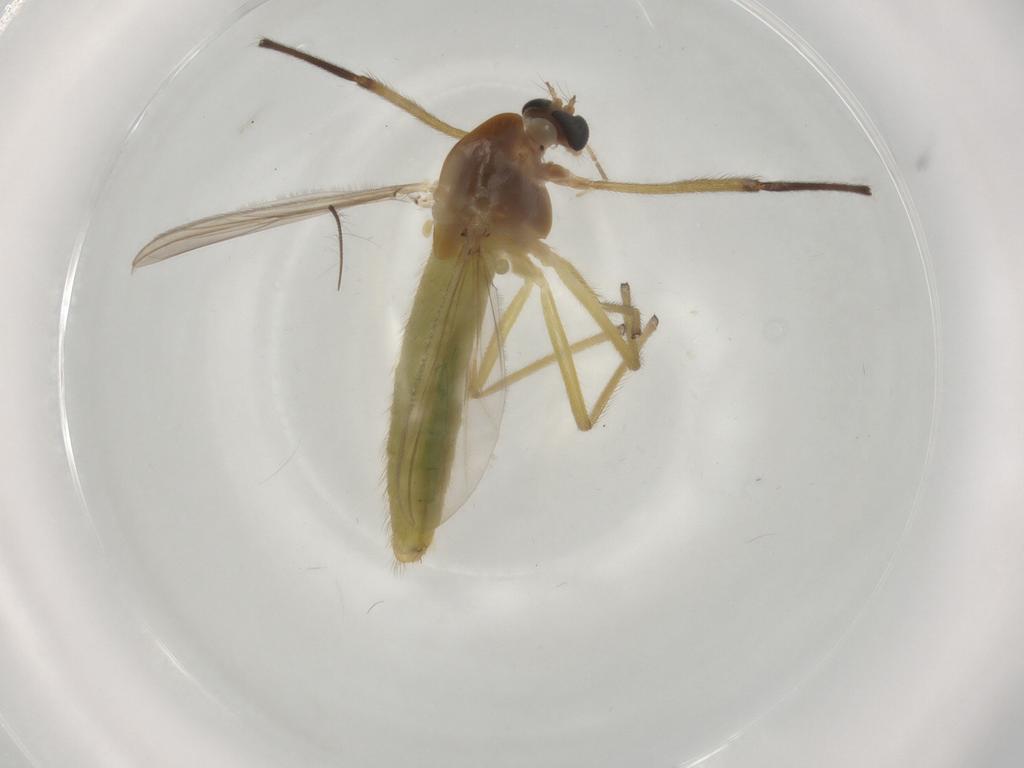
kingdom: Animalia
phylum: Arthropoda
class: Insecta
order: Diptera
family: Chironomidae
